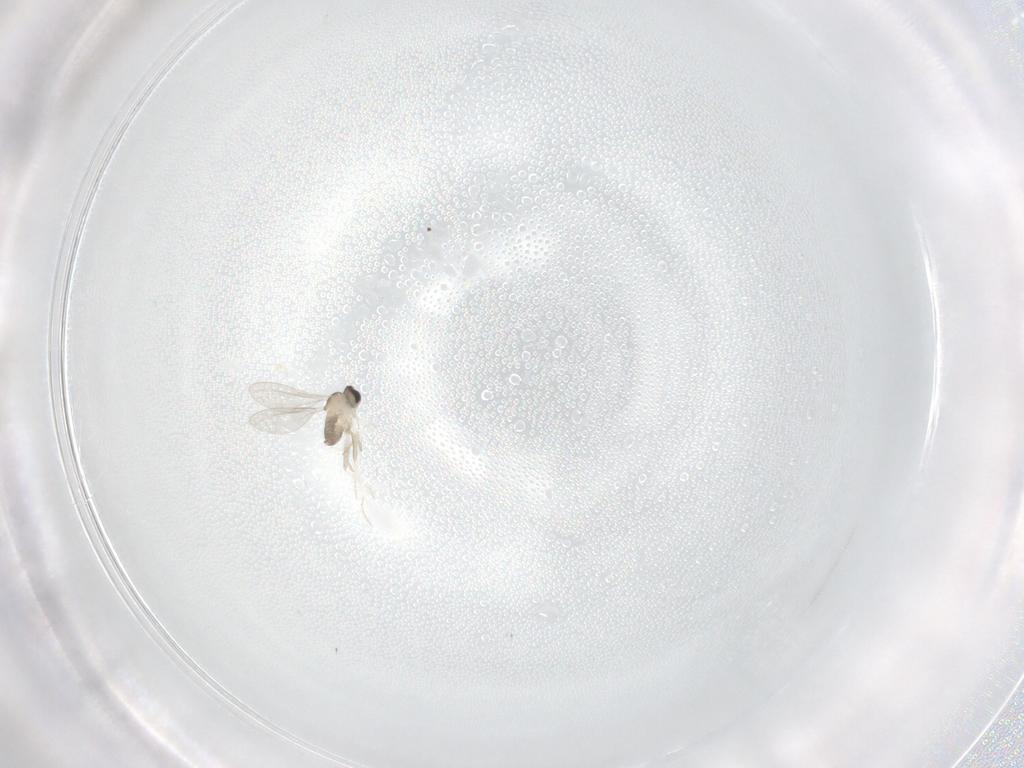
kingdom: Animalia
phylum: Arthropoda
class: Insecta
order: Diptera
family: Cecidomyiidae
